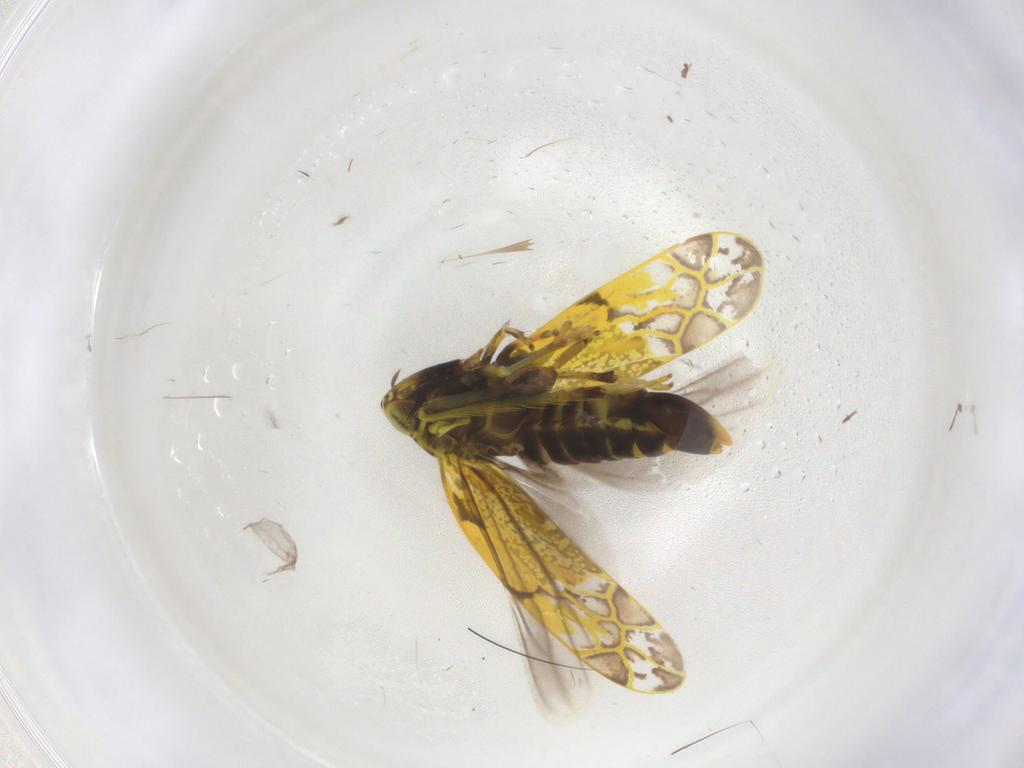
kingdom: Animalia
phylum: Arthropoda
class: Insecta
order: Hemiptera
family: Cicadellidae
